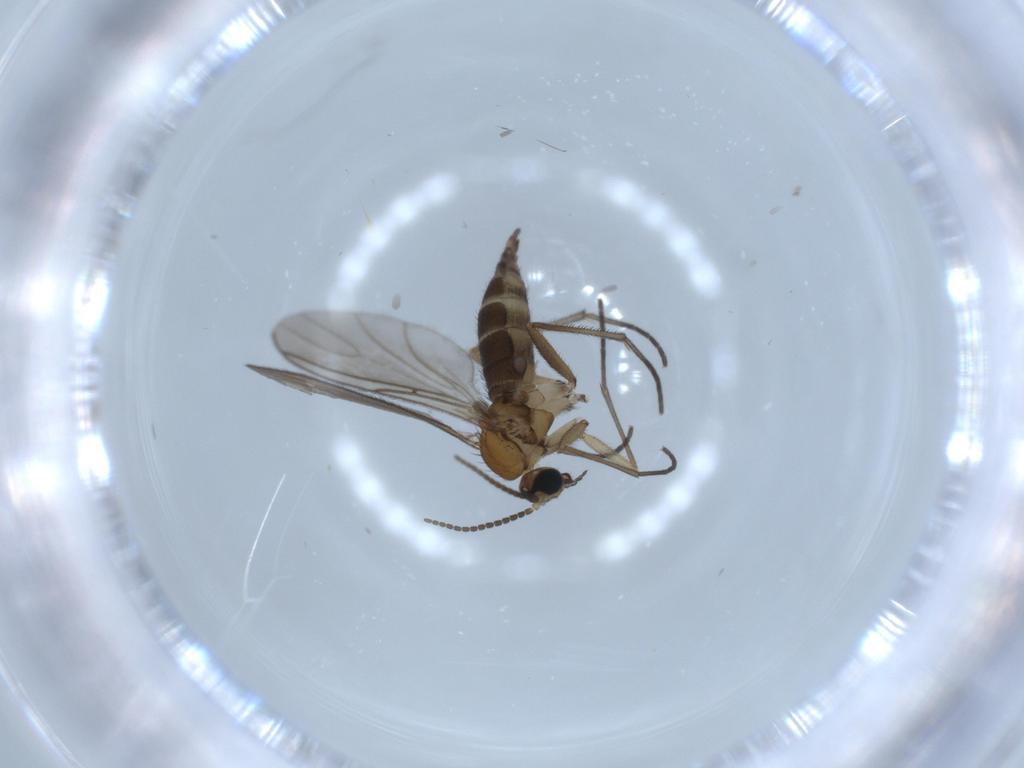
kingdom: Animalia
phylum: Arthropoda
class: Insecta
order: Diptera
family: Sciaridae
